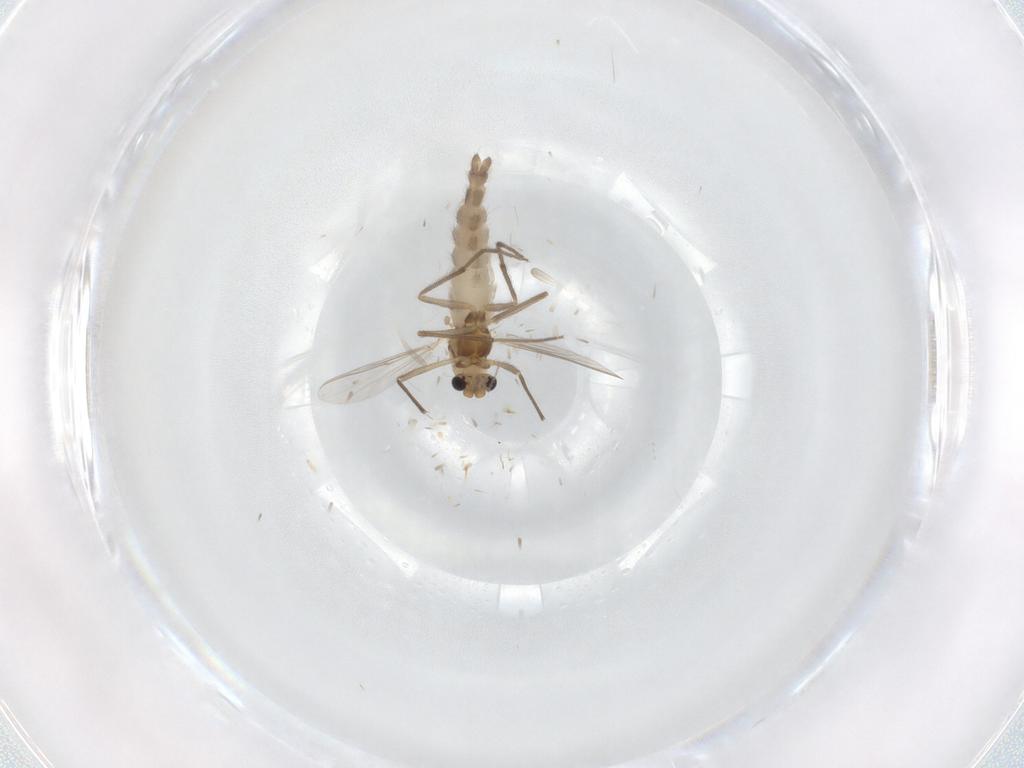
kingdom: Animalia
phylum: Arthropoda
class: Insecta
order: Diptera
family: Chironomidae
